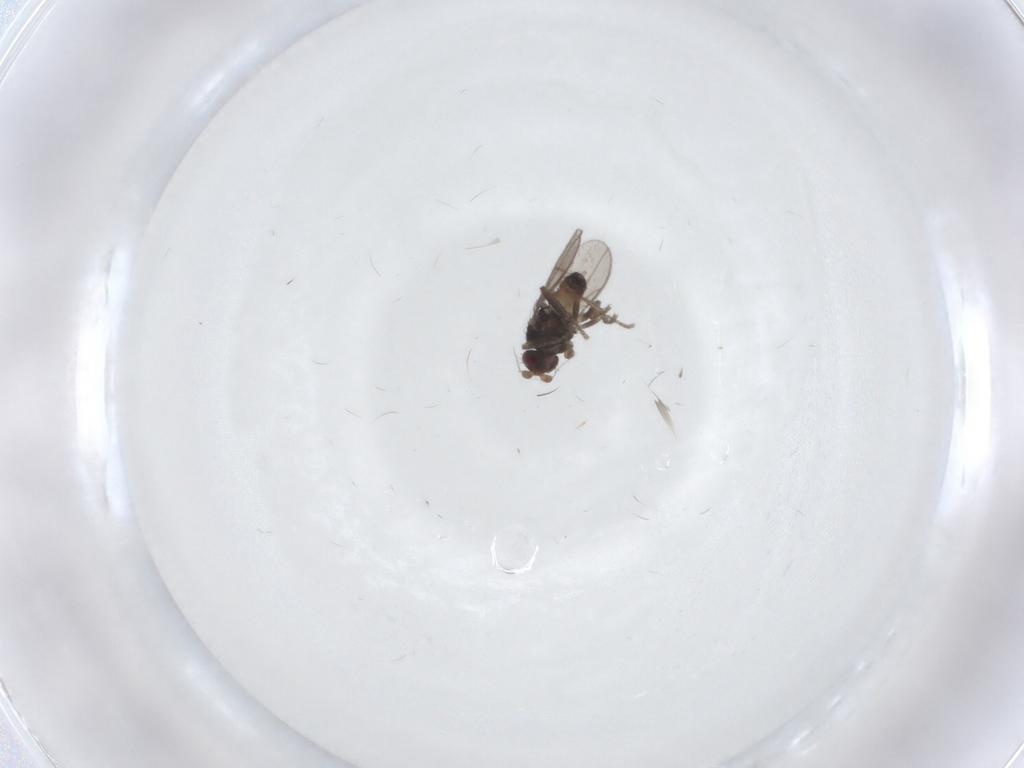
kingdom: Animalia
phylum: Arthropoda
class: Insecta
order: Diptera
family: Sphaeroceridae
